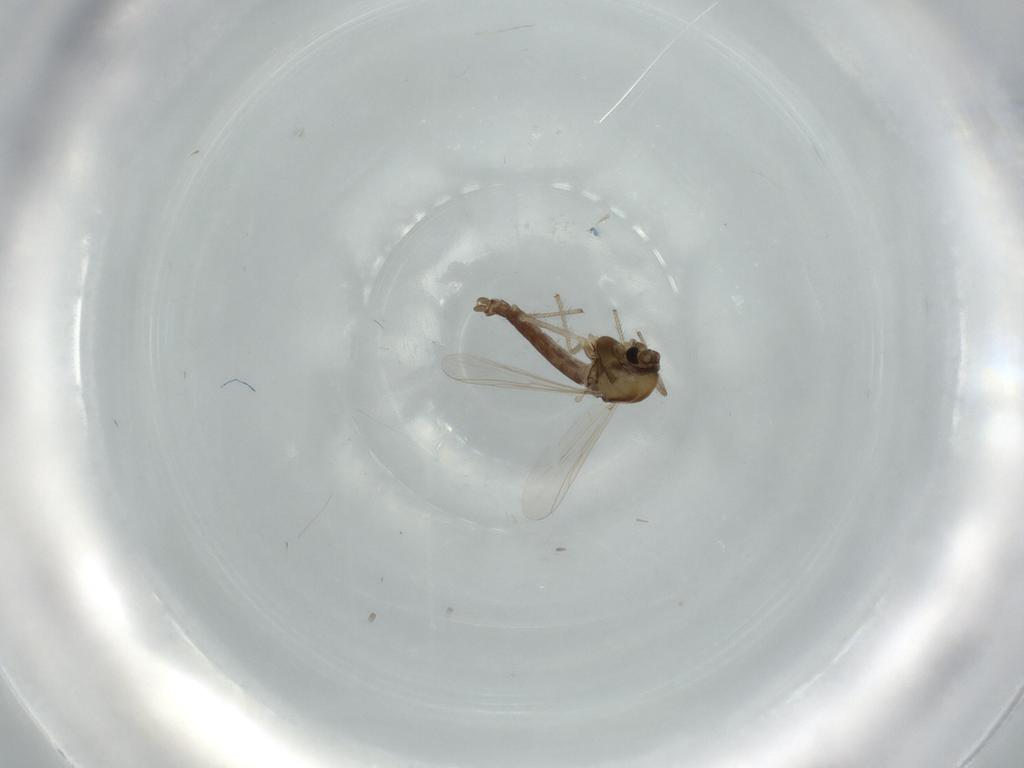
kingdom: Animalia
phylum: Arthropoda
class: Insecta
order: Diptera
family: Chironomidae
